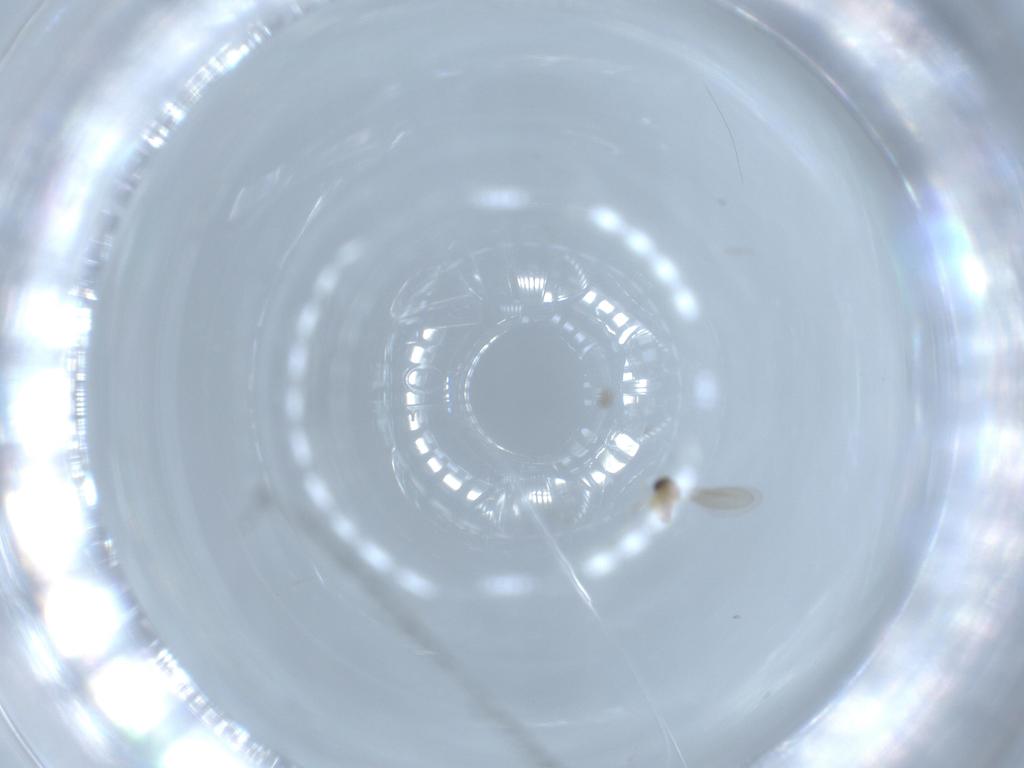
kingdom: Animalia
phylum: Arthropoda
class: Insecta
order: Diptera
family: Cecidomyiidae
